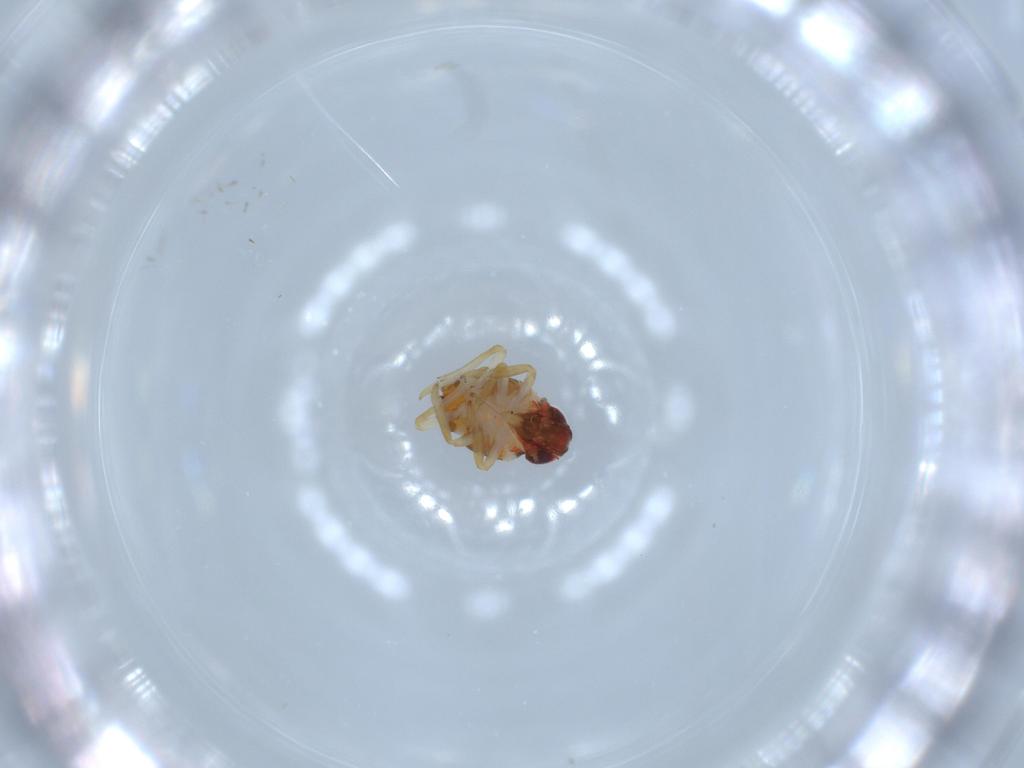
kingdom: Animalia
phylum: Arthropoda
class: Insecta
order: Hemiptera
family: Issidae
